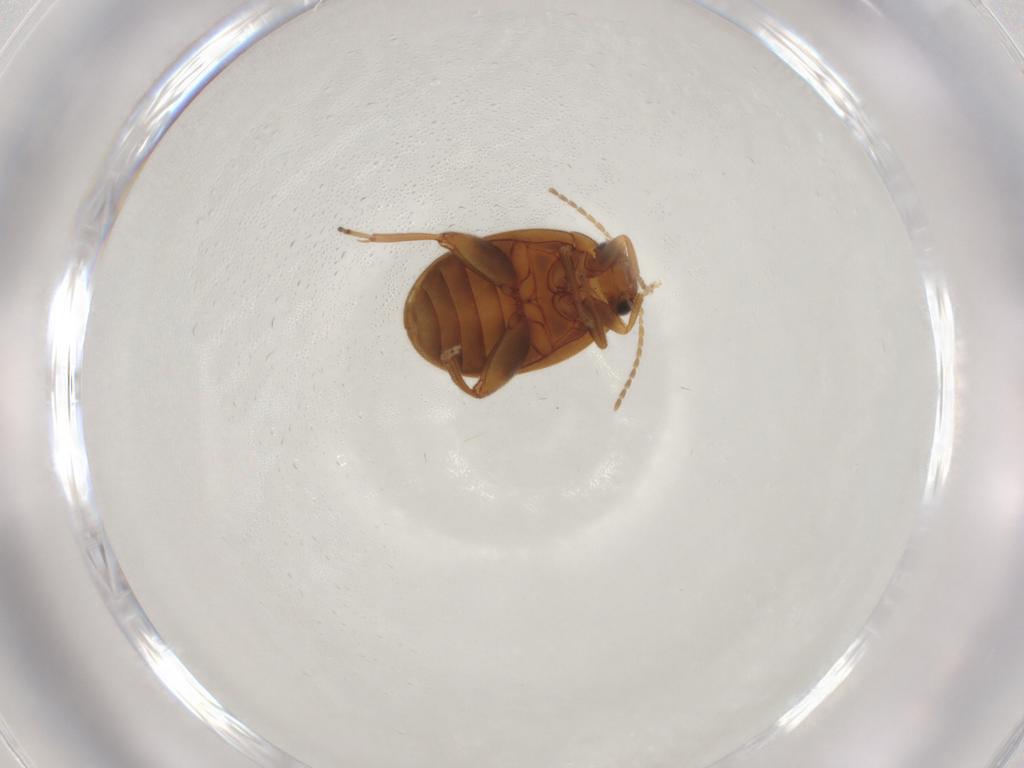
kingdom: Animalia
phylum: Arthropoda
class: Insecta
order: Coleoptera
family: Scirtidae
